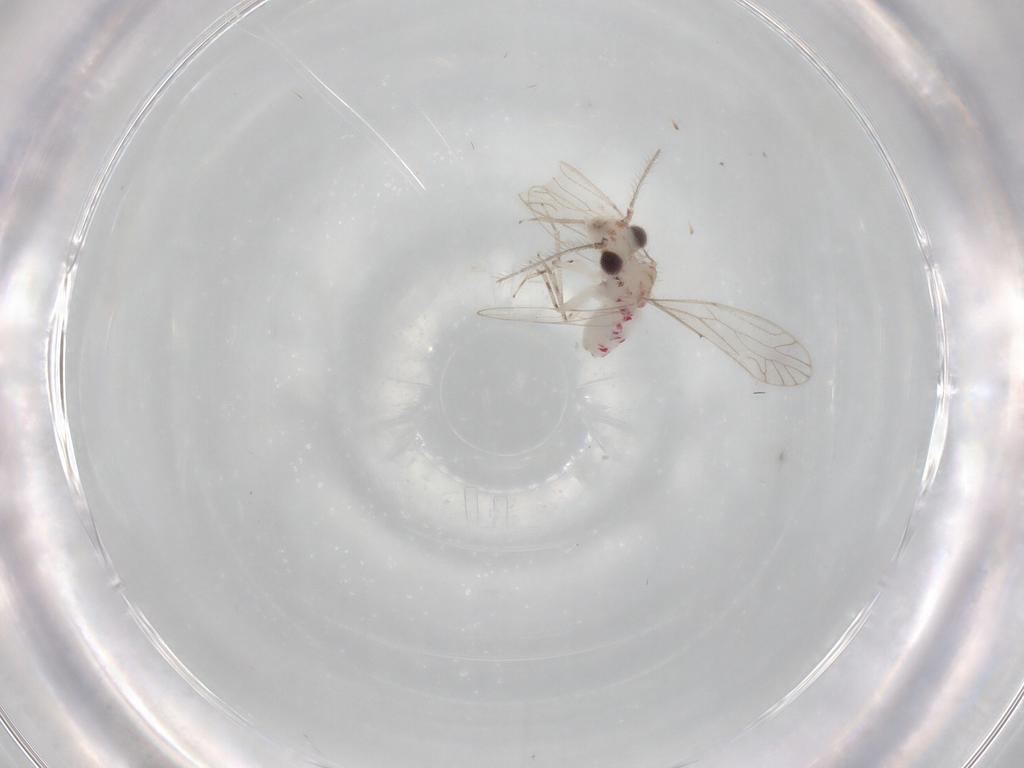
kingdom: Animalia
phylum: Arthropoda
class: Insecta
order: Psocodea
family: Caeciliusidae
